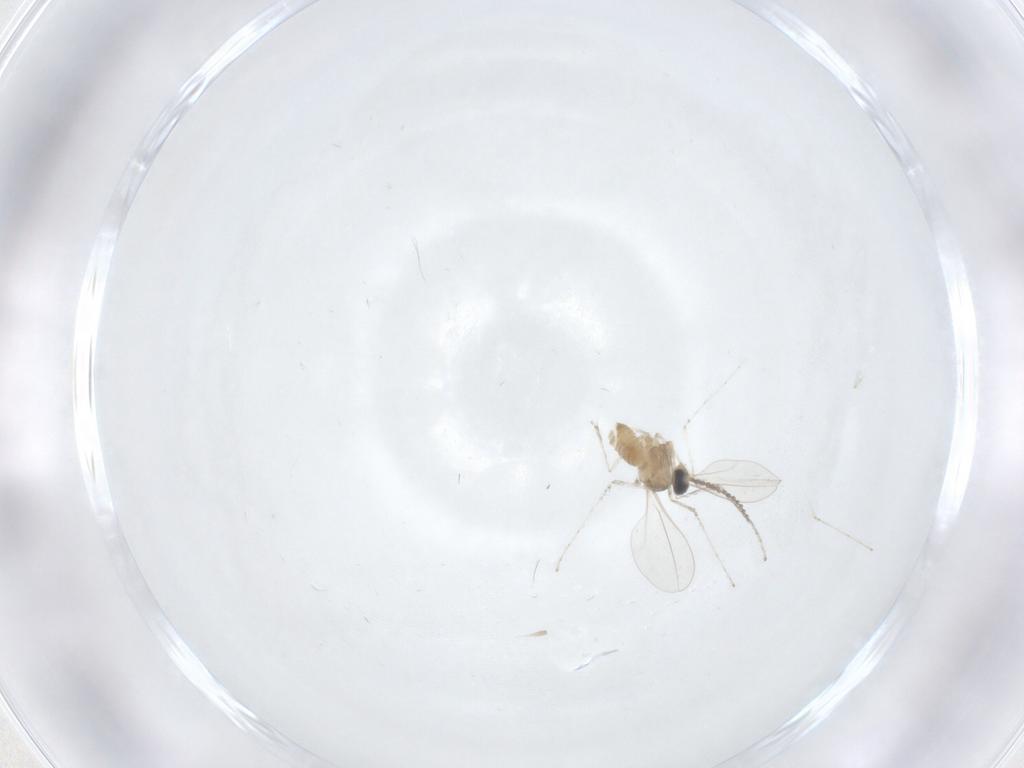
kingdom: Animalia
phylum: Arthropoda
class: Insecta
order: Diptera
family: Cecidomyiidae
